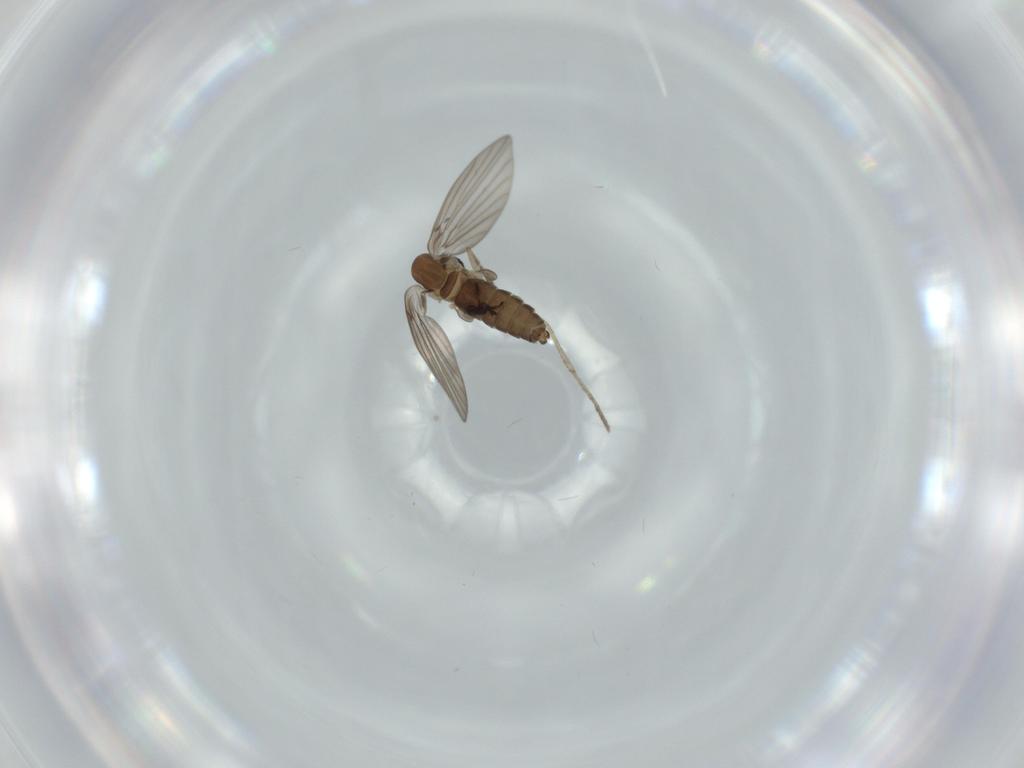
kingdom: Animalia
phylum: Arthropoda
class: Insecta
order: Diptera
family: Psychodidae
